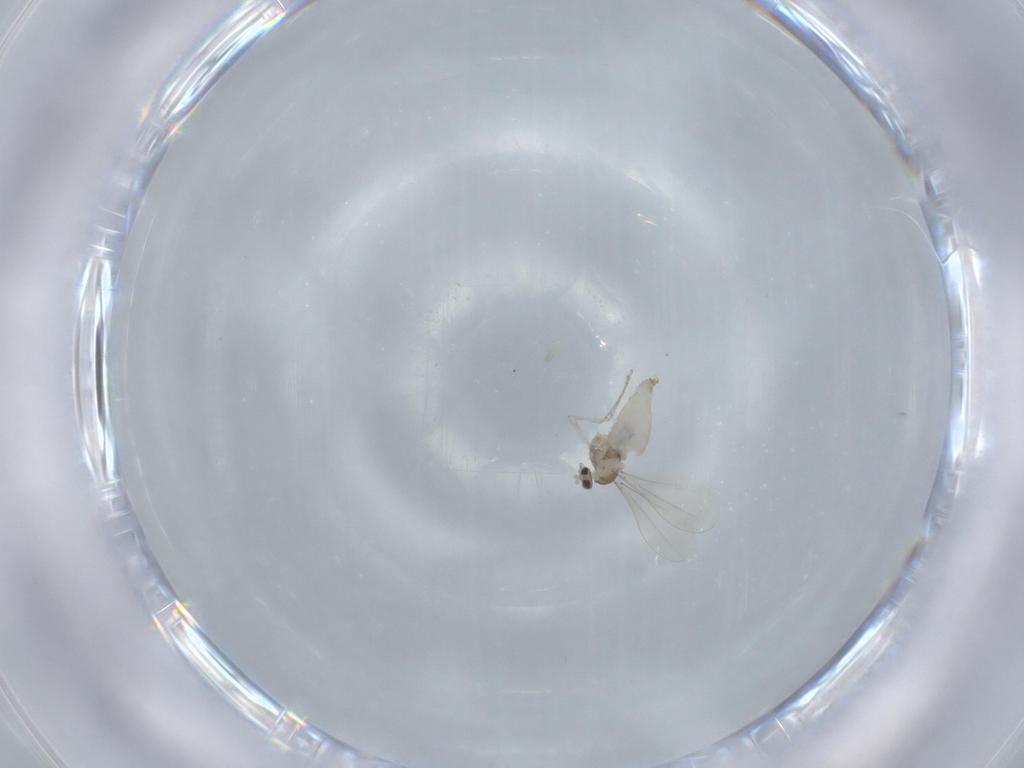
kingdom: Animalia
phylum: Arthropoda
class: Insecta
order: Diptera
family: Cecidomyiidae
